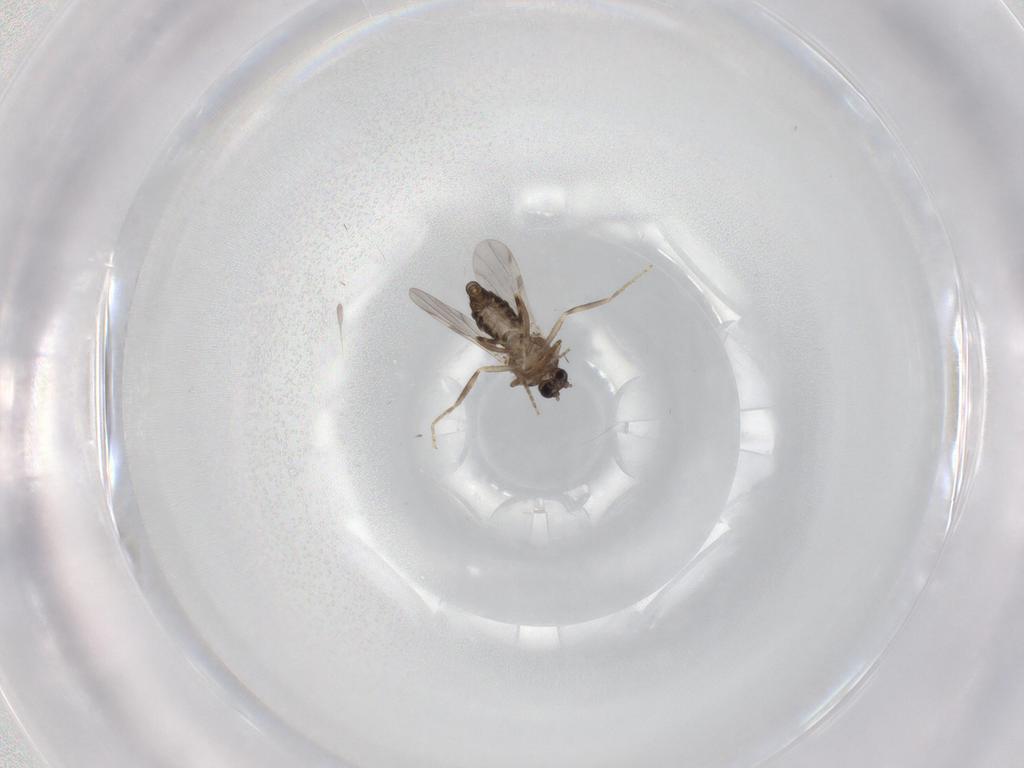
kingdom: Animalia
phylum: Arthropoda
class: Insecta
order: Diptera
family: Ceratopogonidae
